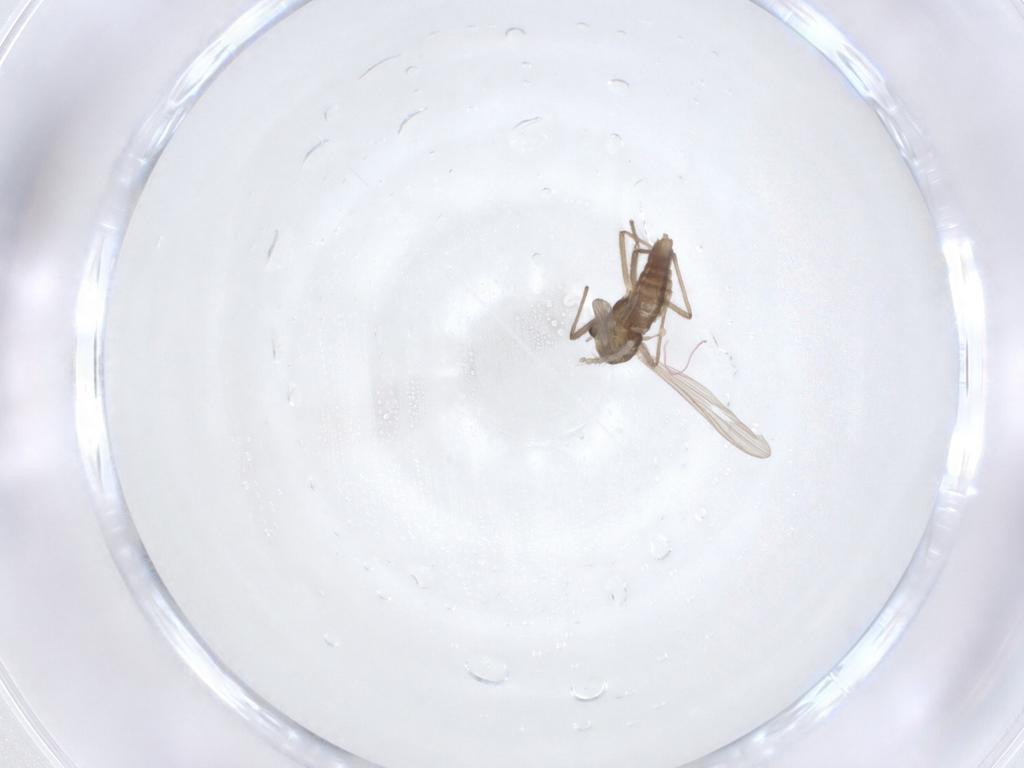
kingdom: Animalia
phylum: Arthropoda
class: Insecta
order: Diptera
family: Chironomidae
